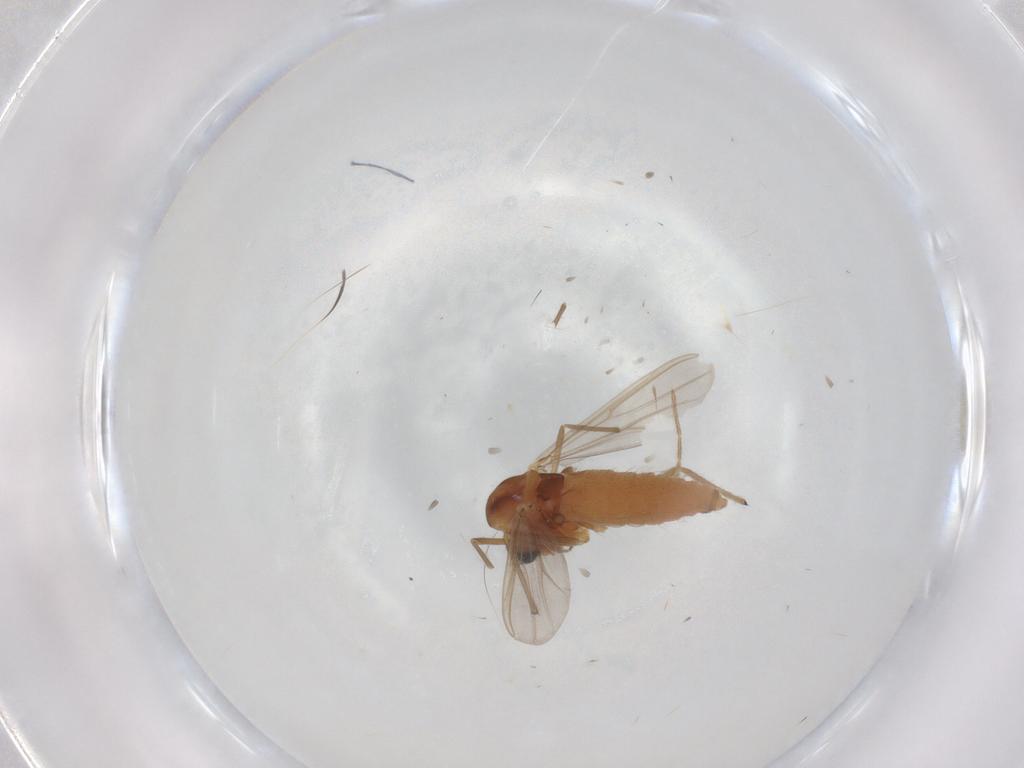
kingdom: Animalia
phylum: Arthropoda
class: Insecta
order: Diptera
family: Chironomidae
